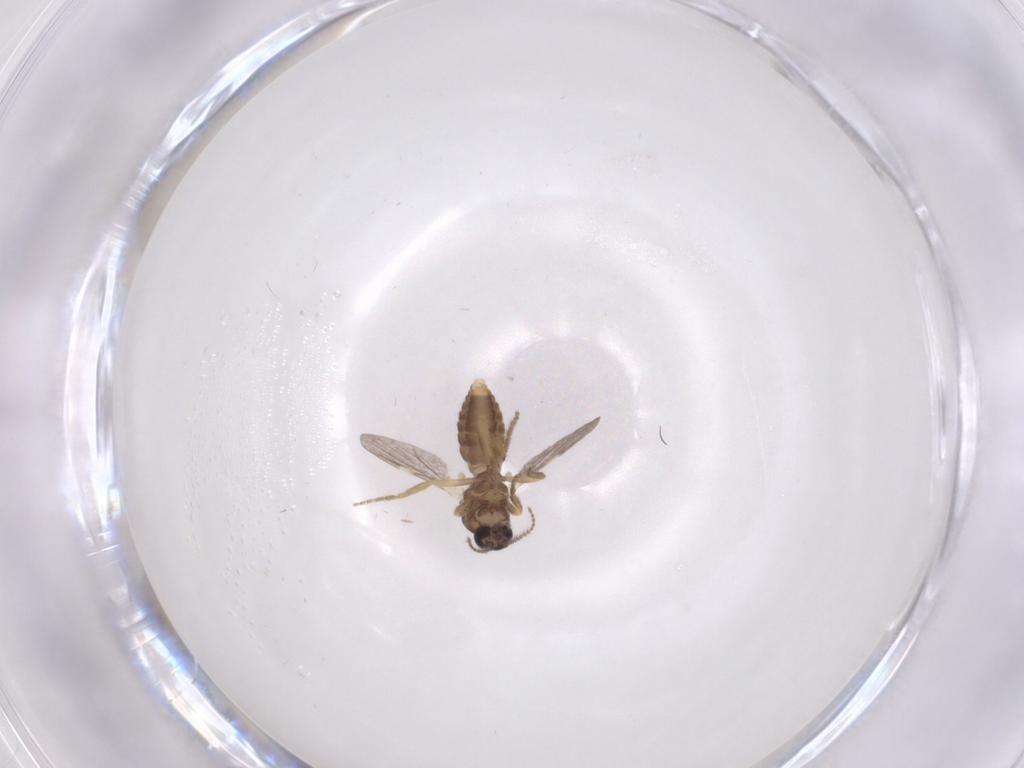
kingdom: Animalia
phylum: Arthropoda
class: Insecta
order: Diptera
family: Ceratopogonidae
